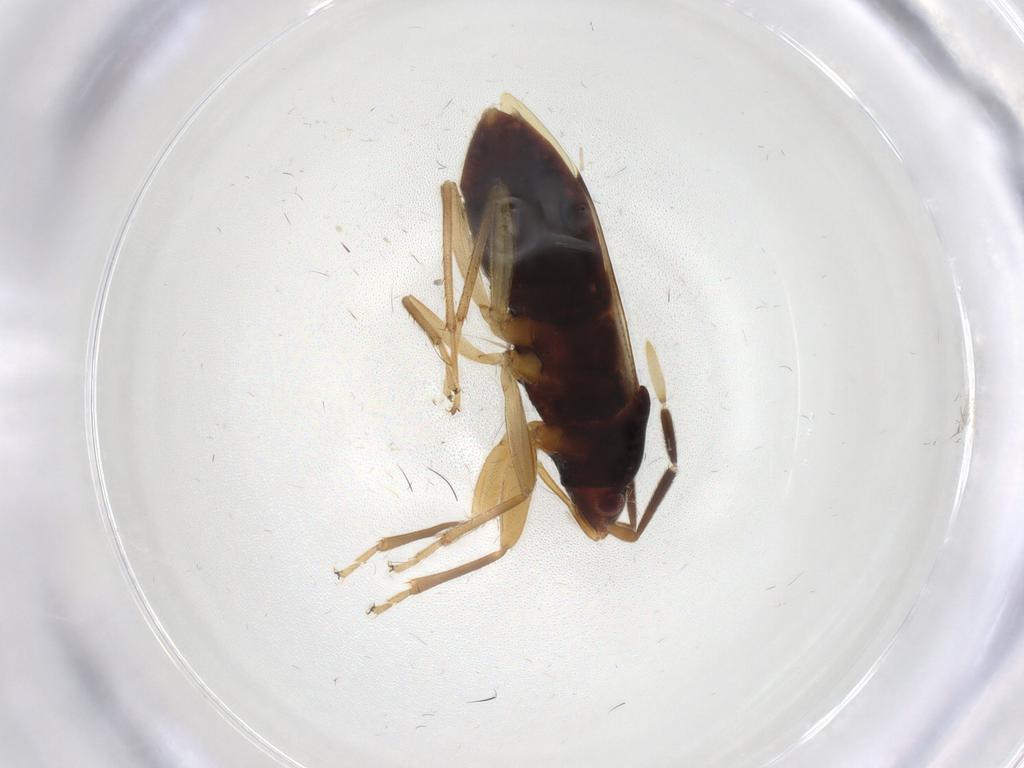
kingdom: Animalia
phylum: Arthropoda
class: Insecta
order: Hemiptera
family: Rhyparochromidae
